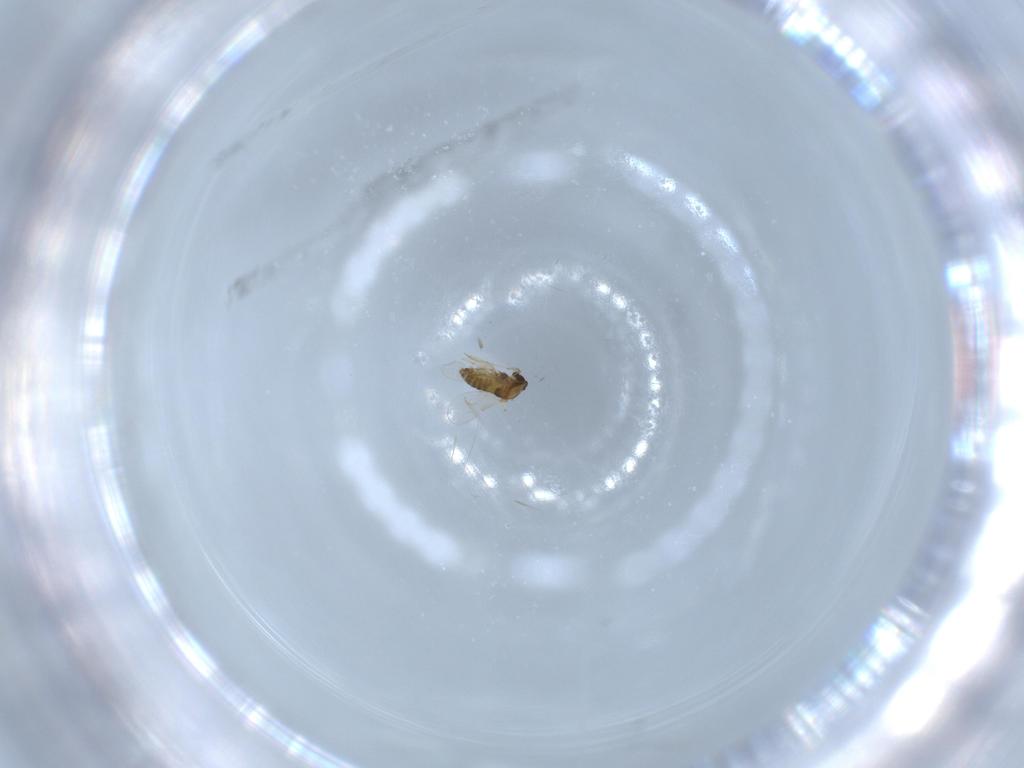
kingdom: Animalia
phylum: Arthropoda
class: Insecta
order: Diptera
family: Chironomidae
